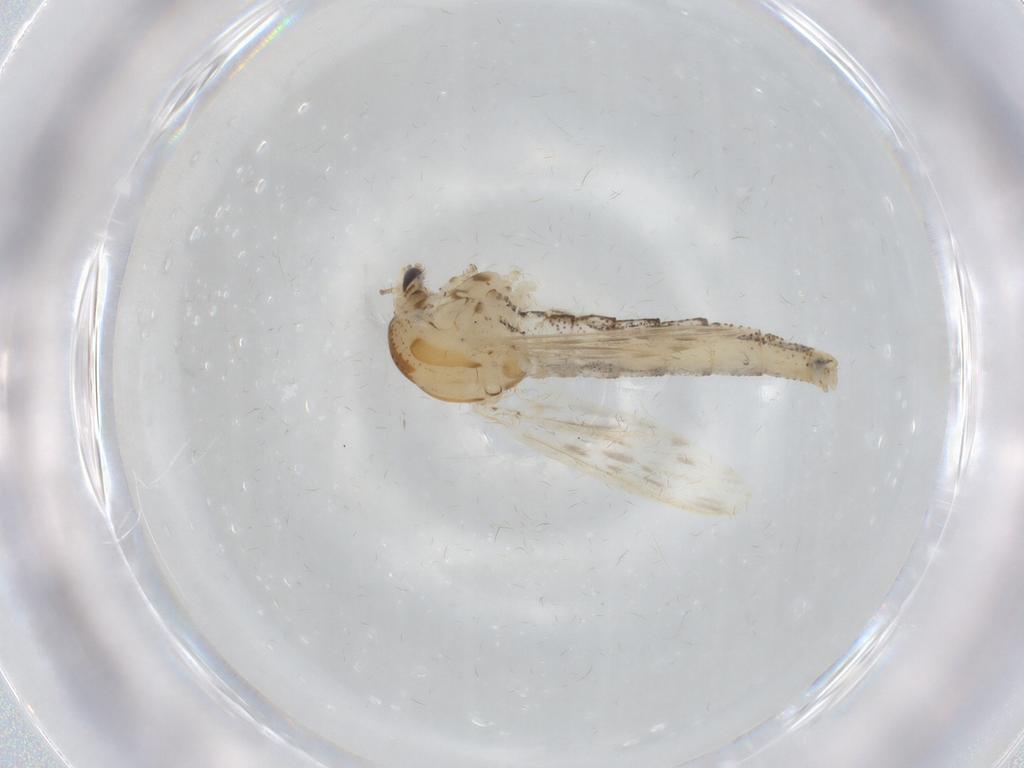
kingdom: Animalia
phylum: Arthropoda
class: Insecta
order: Diptera
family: Chaoboridae
